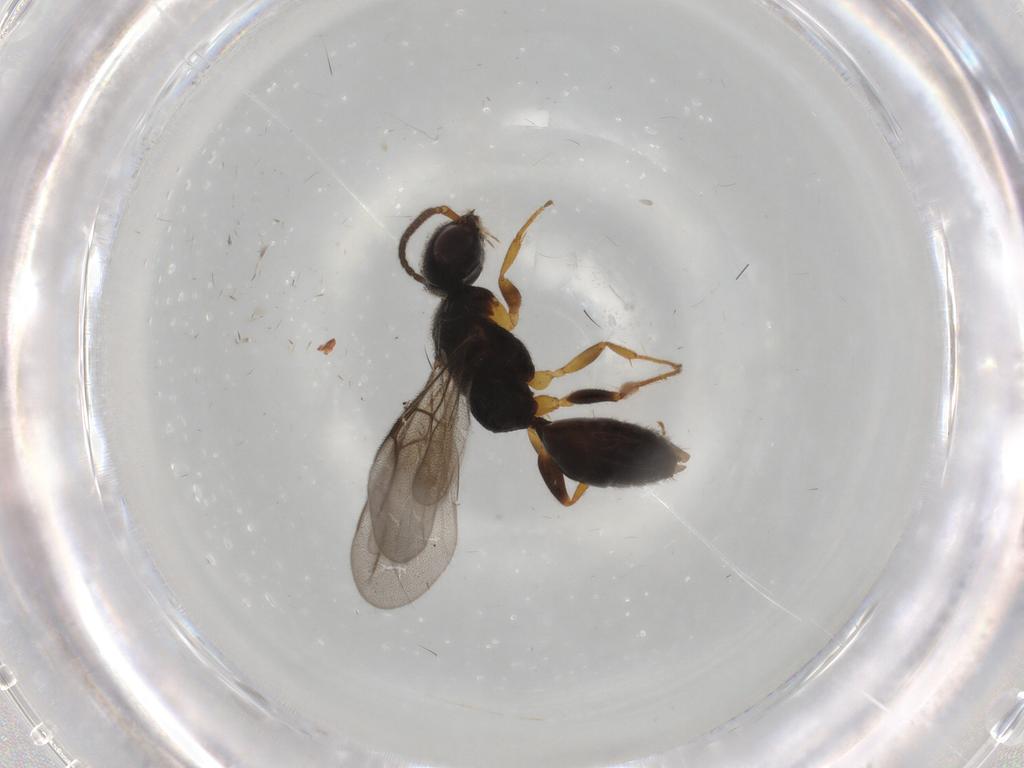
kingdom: Animalia
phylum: Arthropoda
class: Insecta
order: Hymenoptera
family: Bethylidae
